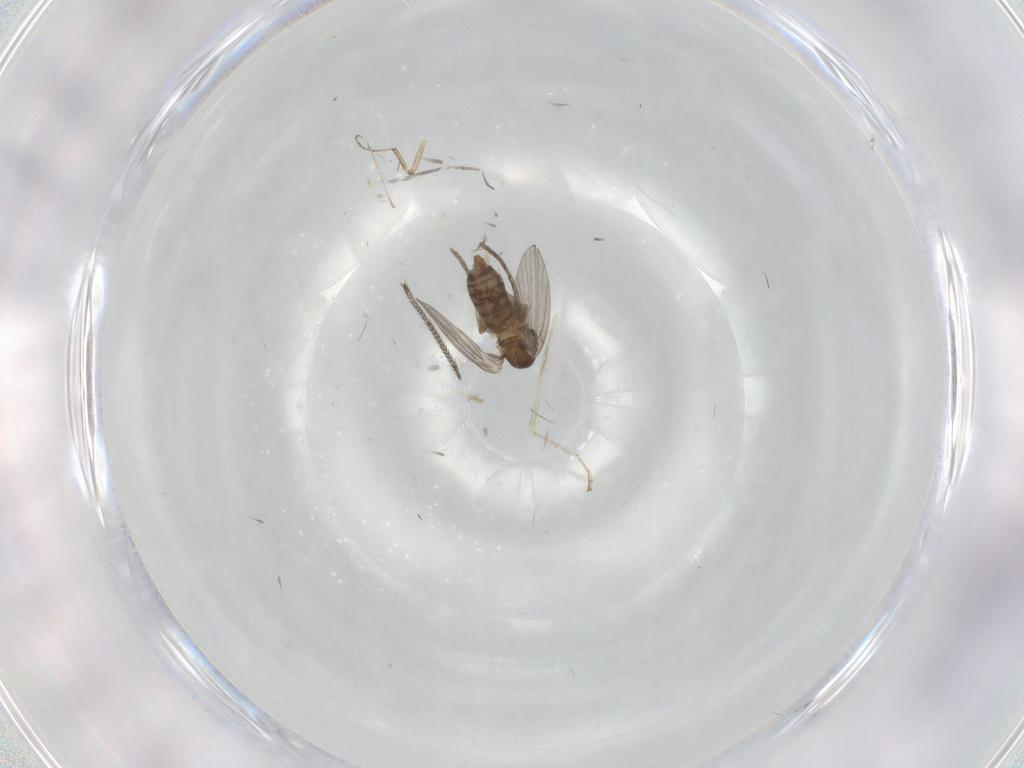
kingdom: Animalia
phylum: Arthropoda
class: Insecta
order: Diptera
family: Dolichopodidae
